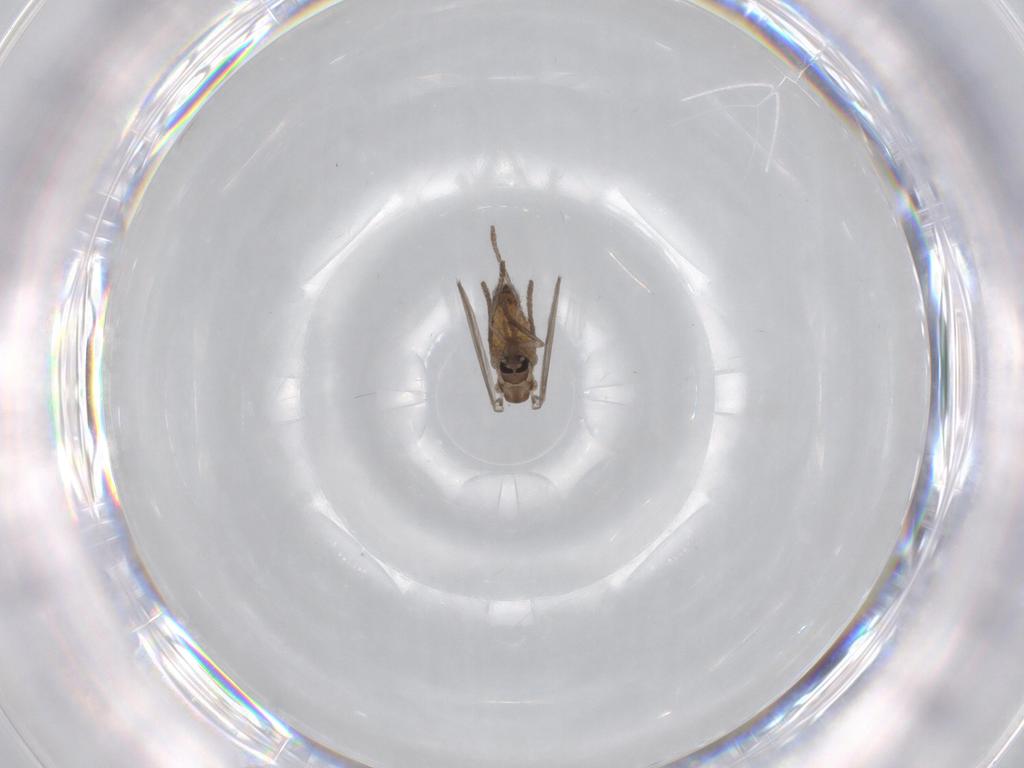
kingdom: Animalia
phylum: Arthropoda
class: Insecta
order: Diptera
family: Psychodidae
